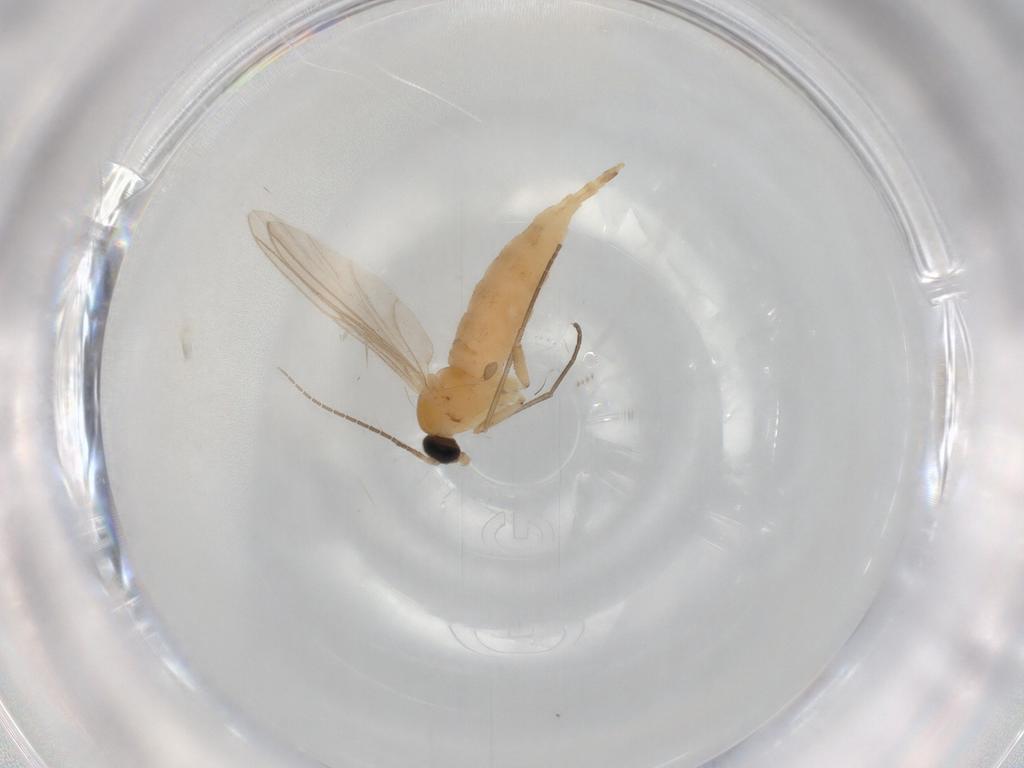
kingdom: Animalia
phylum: Arthropoda
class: Insecta
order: Diptera
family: Sciaridae
